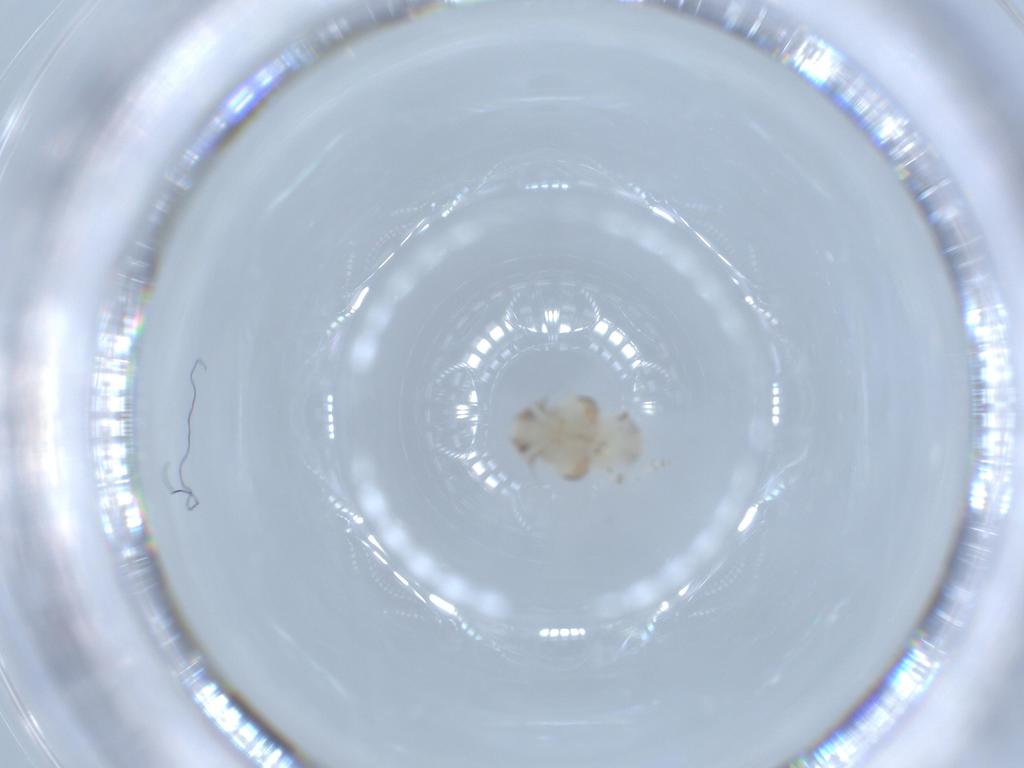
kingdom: Animalia
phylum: Arthropoda
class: Insecta
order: Hemiptera
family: Nogodinidae
